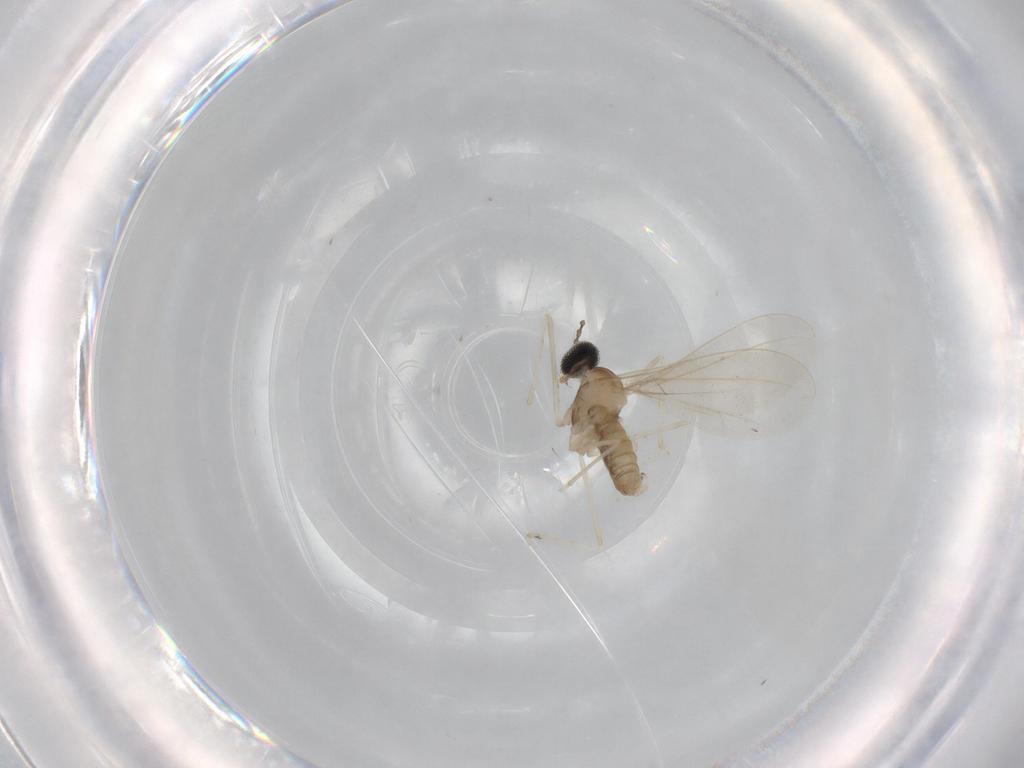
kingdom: Animalia
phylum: Arthropoda
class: Insecta
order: Diptera
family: Cecidomyiidae
